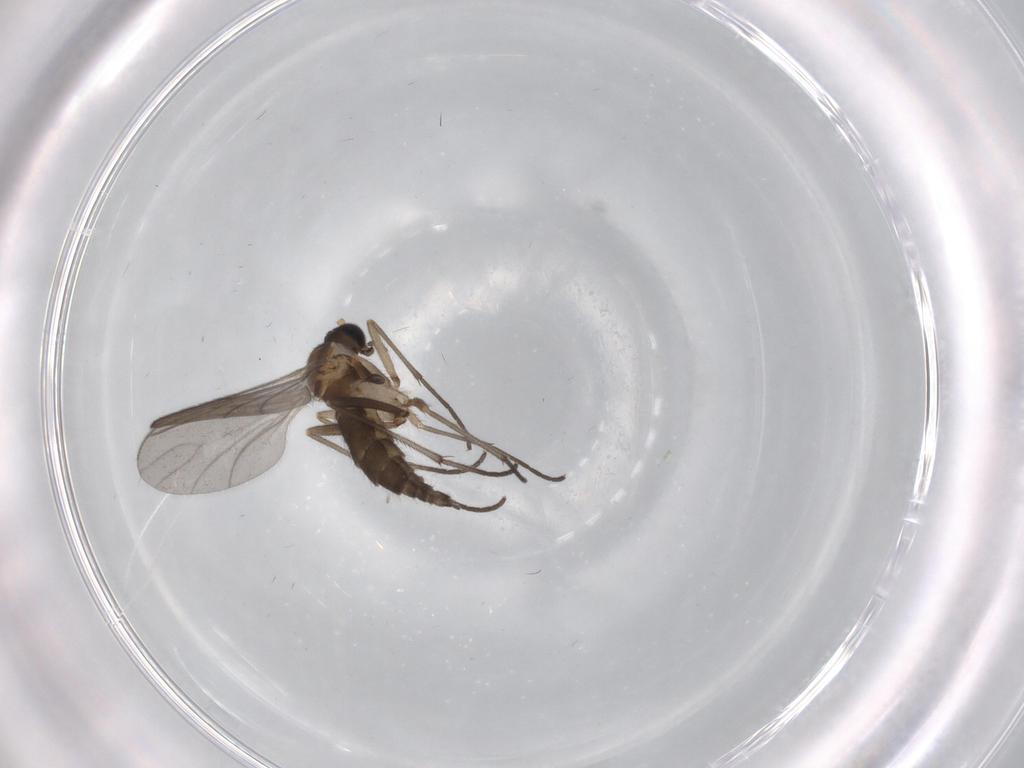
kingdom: Animalia
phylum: Arthropoda
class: Insecta
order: Diptera
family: Sciaridae
